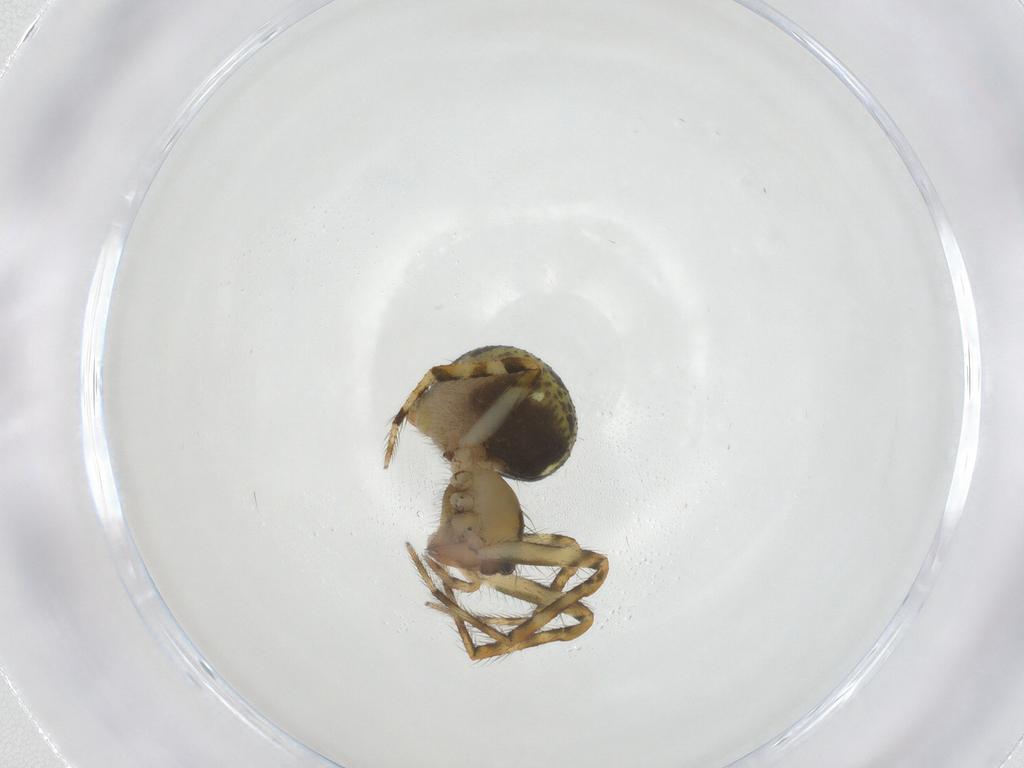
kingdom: Animalia
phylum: Arthropoda
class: Arachnida
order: Araneae
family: Theridiidae
